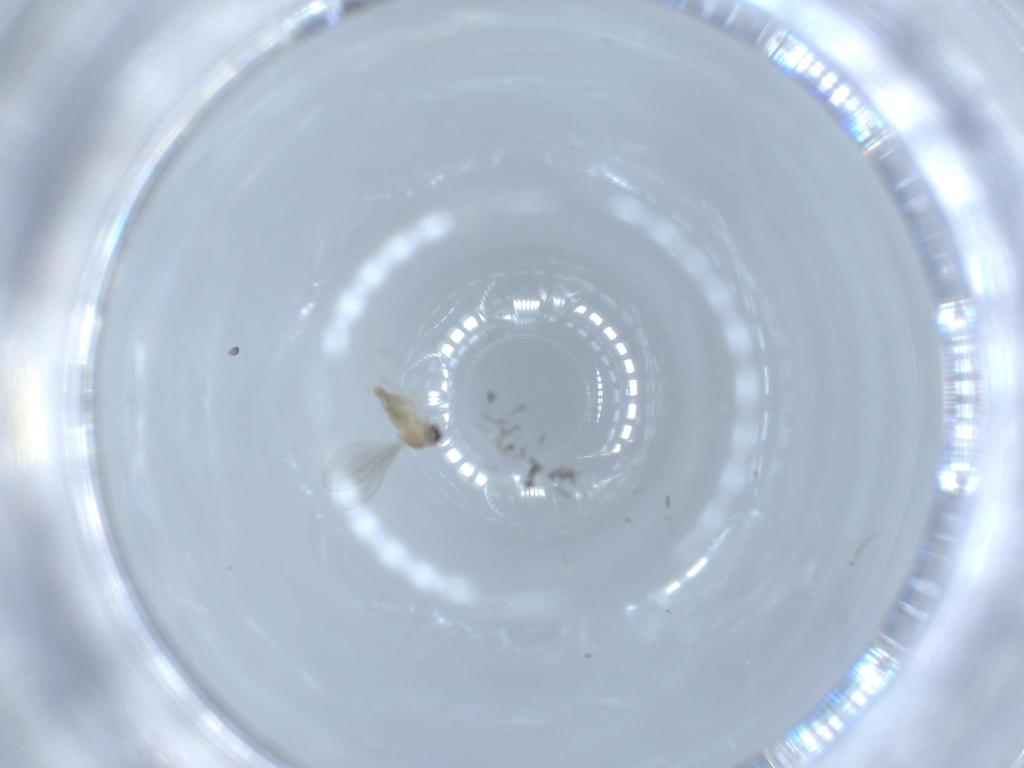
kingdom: Animalia
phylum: Arthropoda
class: Insecta
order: Diptera
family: Cecidomyiidae
